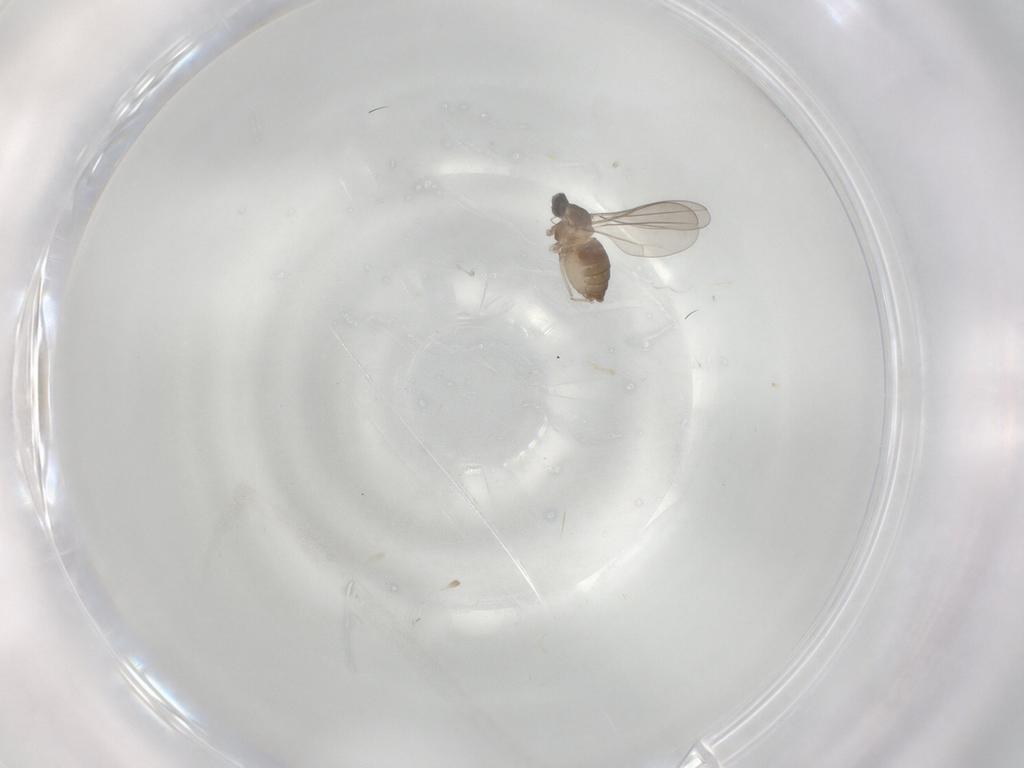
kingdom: Animalia
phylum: Arthropoda
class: Insecta
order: Diptera
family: Cecidomyiidae
